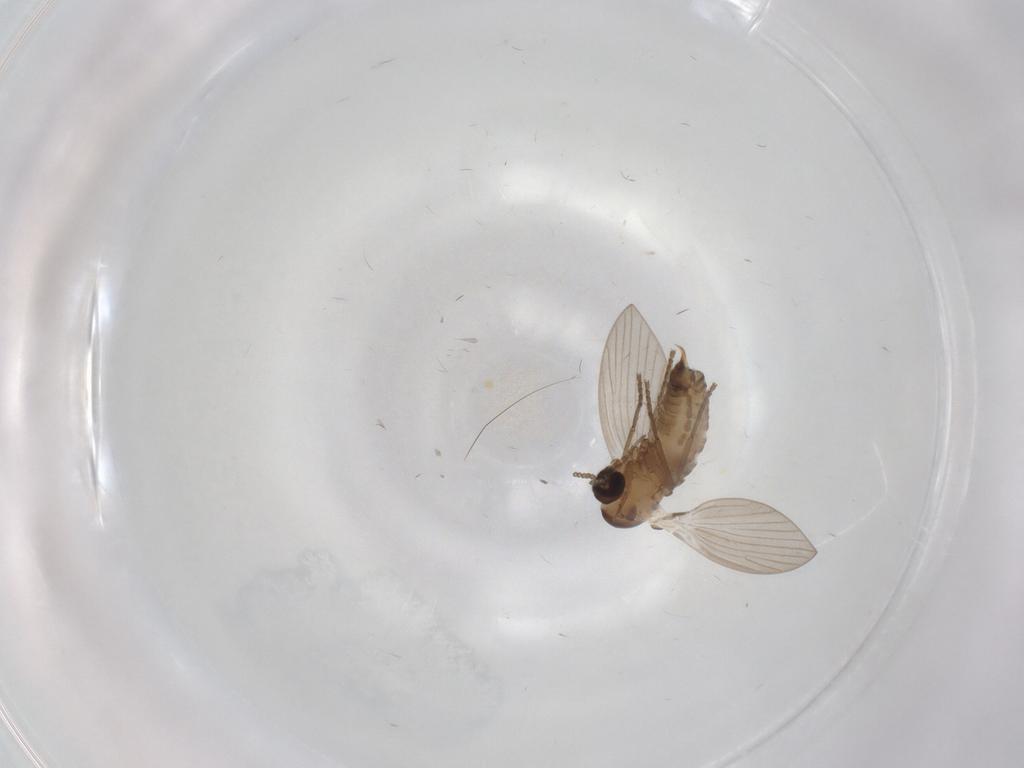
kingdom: Animalia
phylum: Arthropoda
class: Insecta
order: Diptera
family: Psychodidae
